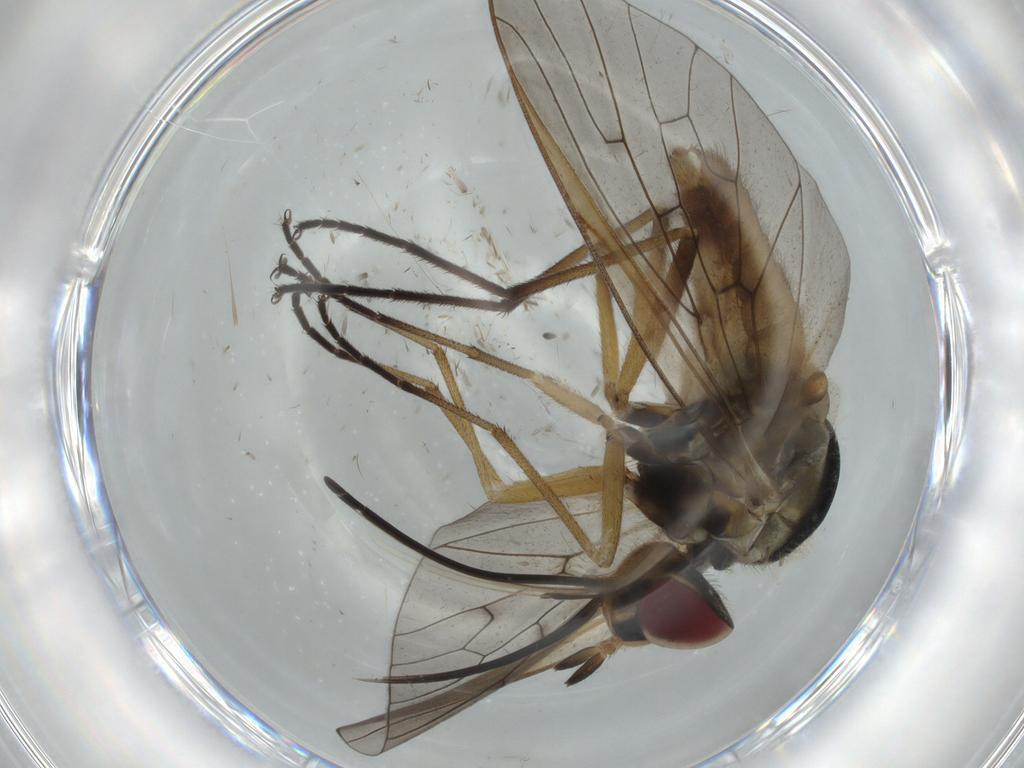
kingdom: Animalia
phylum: Arthropoda
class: Insecta
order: Diptera
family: Bombyliidae
